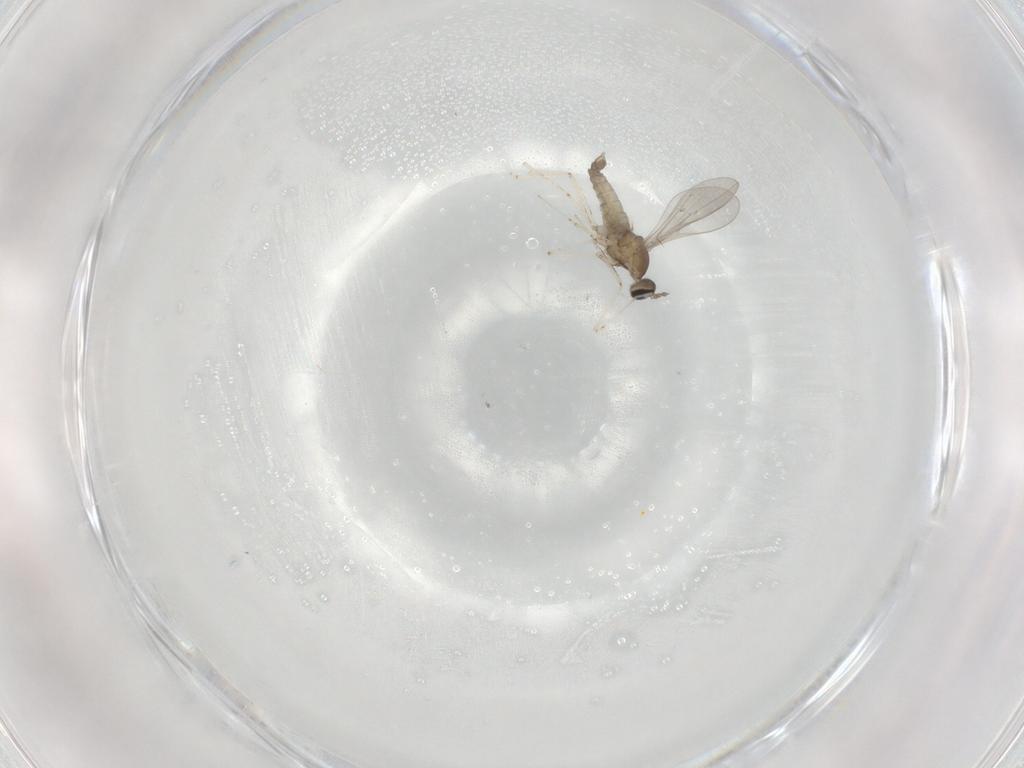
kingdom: Animalia
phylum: Arthropoda
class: Insecta
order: Diptera
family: Cecidomyiidae
